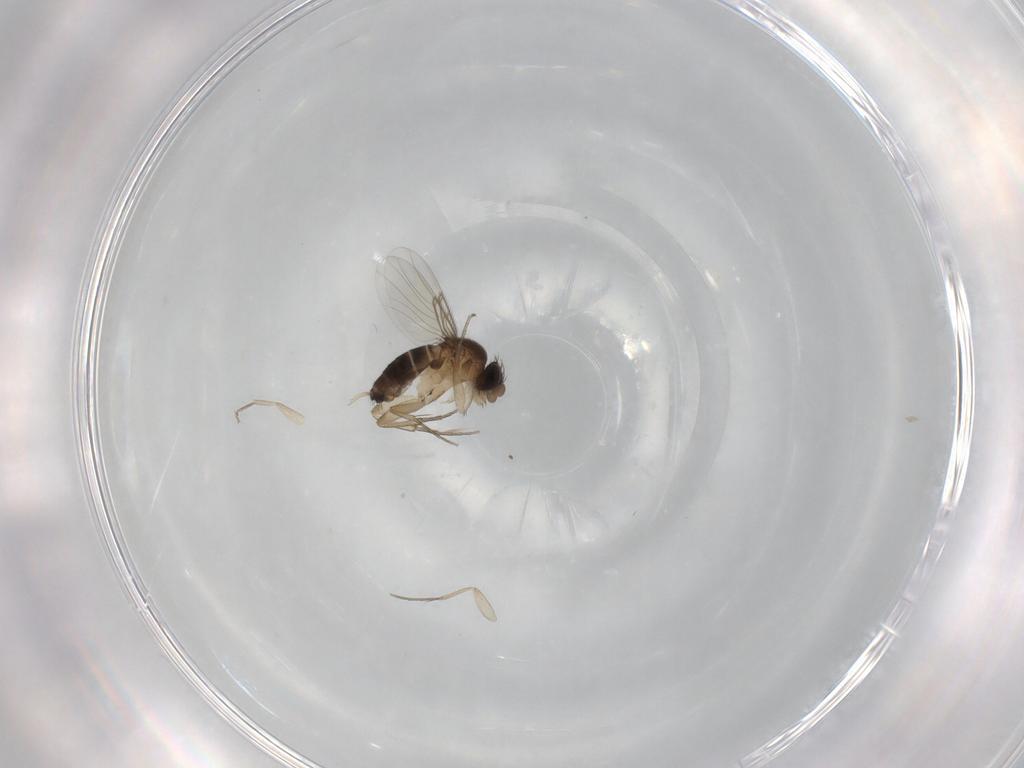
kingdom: Animalia
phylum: Arthropoda
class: Insecta
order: Diptera
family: Phoridae
